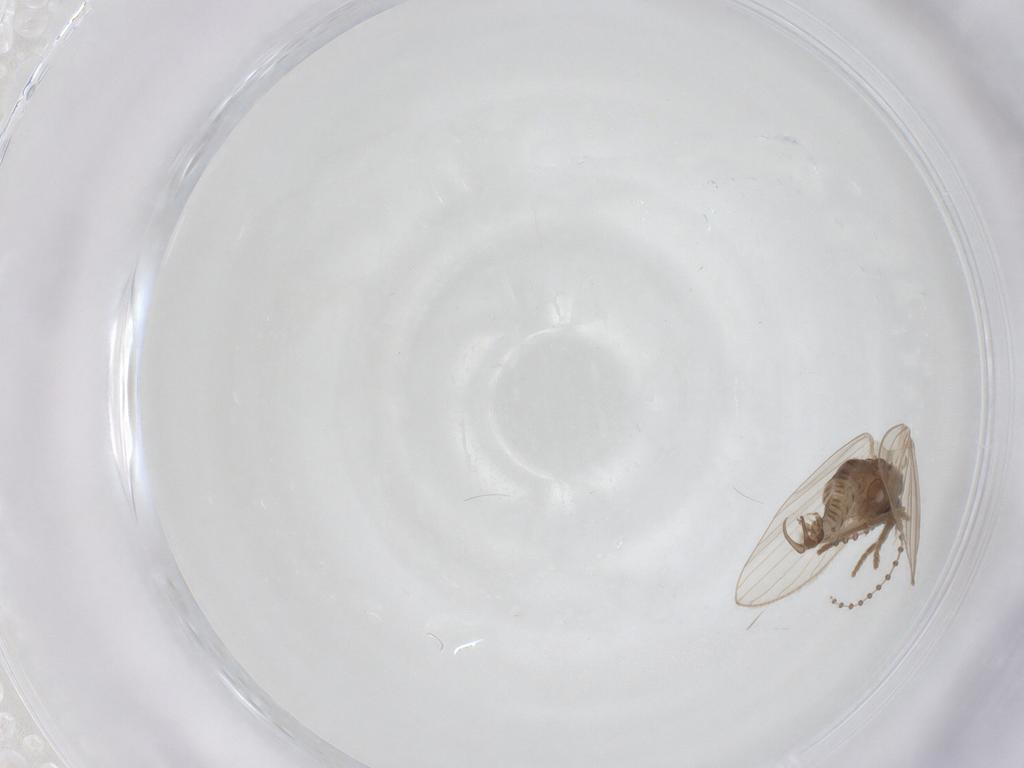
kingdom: Animalia
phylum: Arthropoda
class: Insecta
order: Diptera
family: Psychodidae
